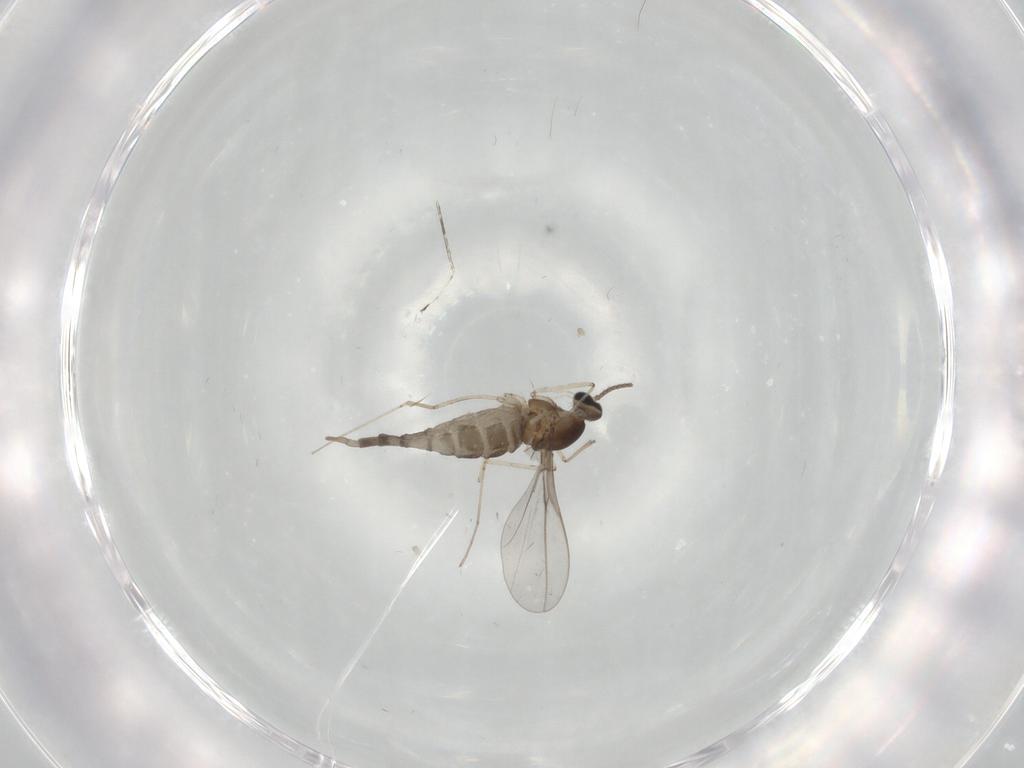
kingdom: Animalia
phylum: Arthropoda
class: Insecta
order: Diptera
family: Cecidomyiidae
